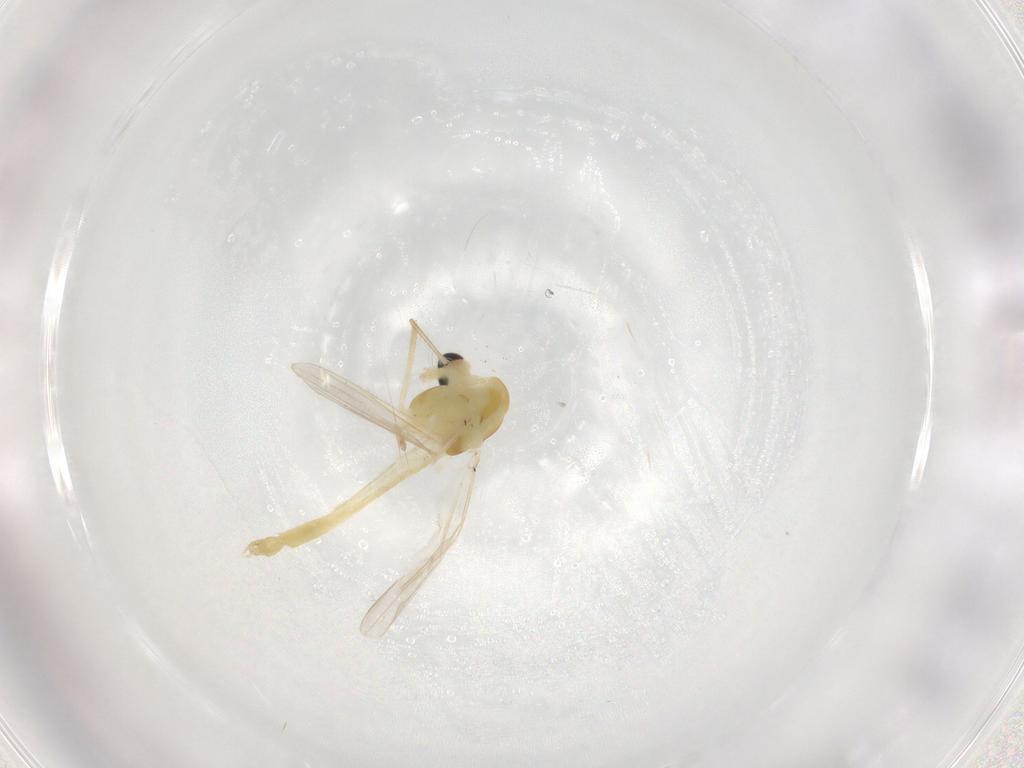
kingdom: Animalia
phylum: Arthropoda
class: Insecta
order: Diptera
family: Chironomidae
